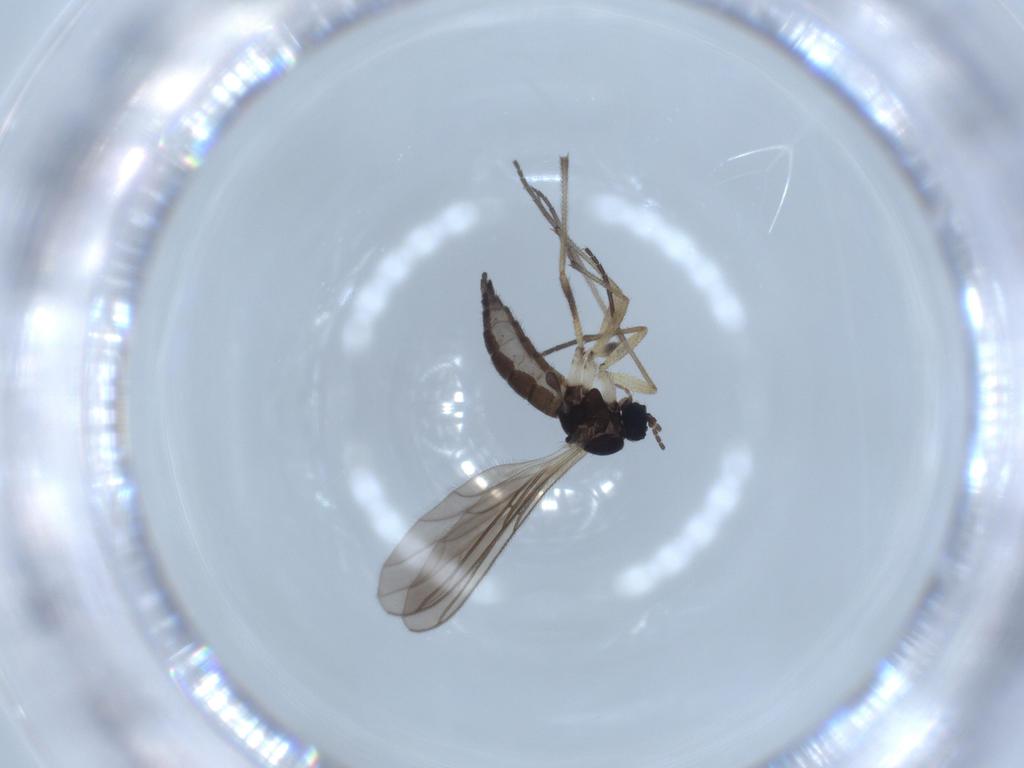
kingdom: Animalia
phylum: Arthropoda
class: Insecta
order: Diptera
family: Sciaridae
